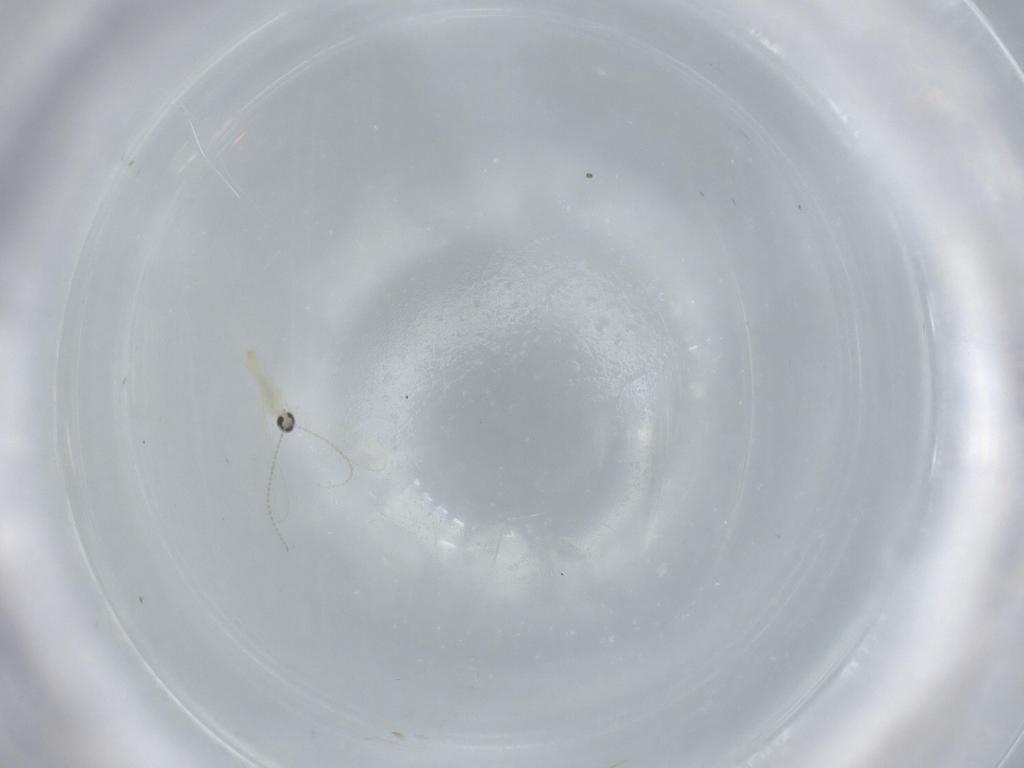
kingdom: Animalia
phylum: Arthropoda
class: Insecta
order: Diptera
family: Cecidomyiidae
